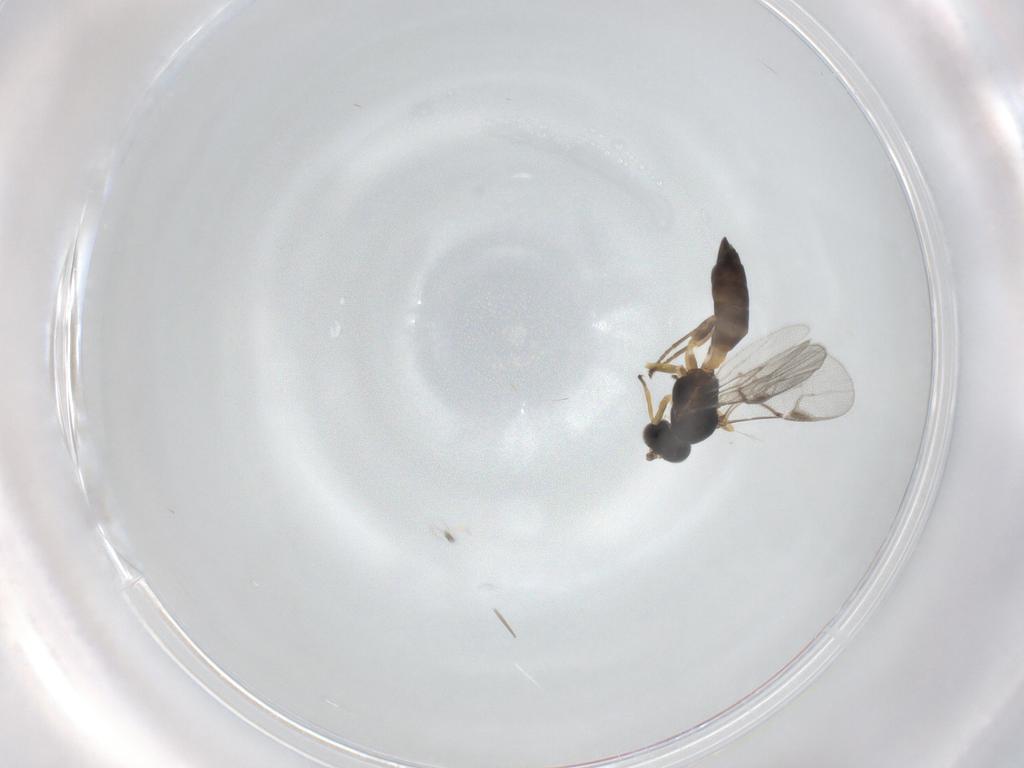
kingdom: Animalia
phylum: Arthropoda
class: Insecta
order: Hymenoptera
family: Braconidae
